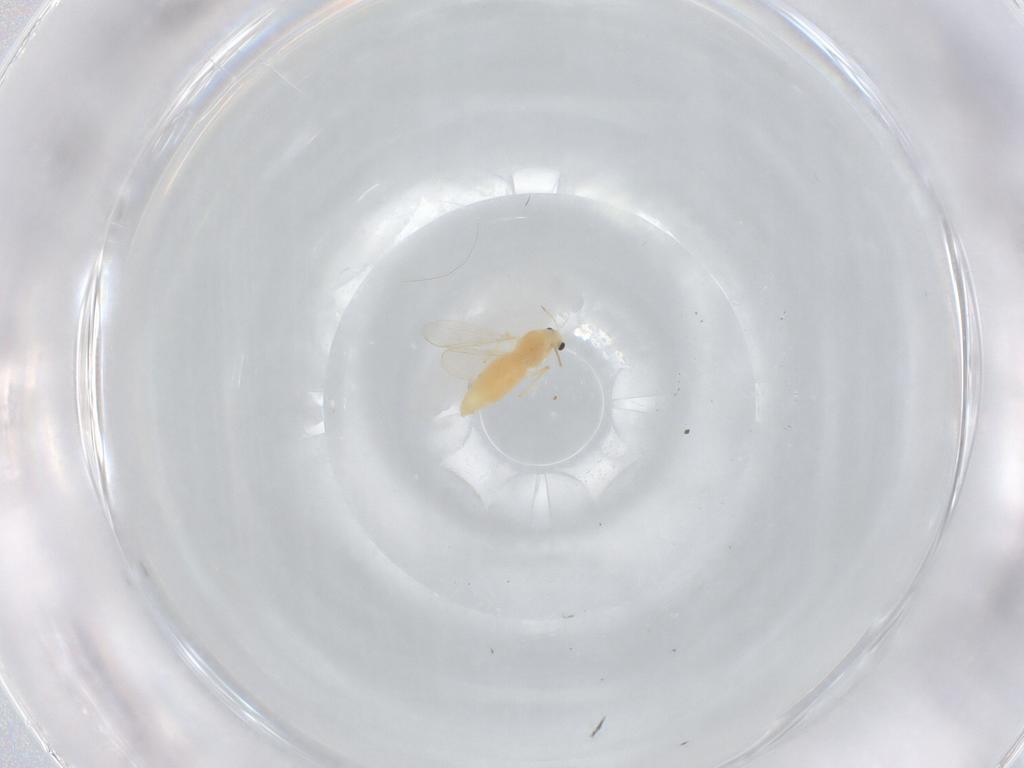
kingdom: Animalia
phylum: Arthropoda
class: Insecta
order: Diptera
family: Chironomidae
